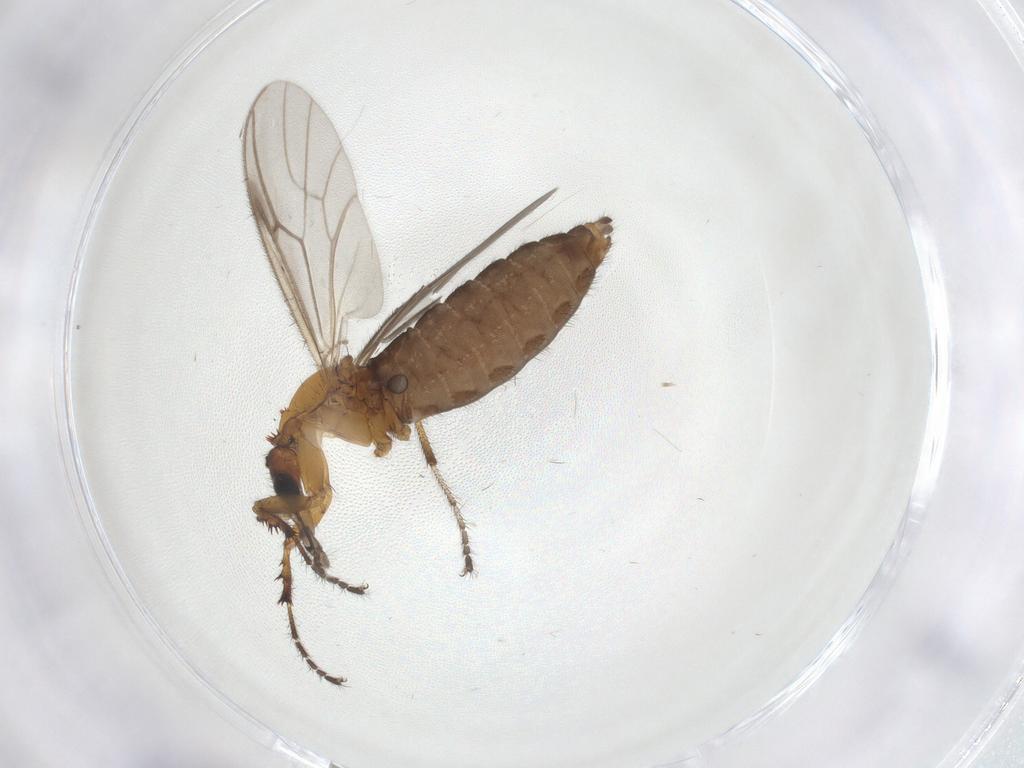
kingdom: Animalia
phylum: Arthropoda
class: Insecta
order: Diptera
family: Bibionidae
